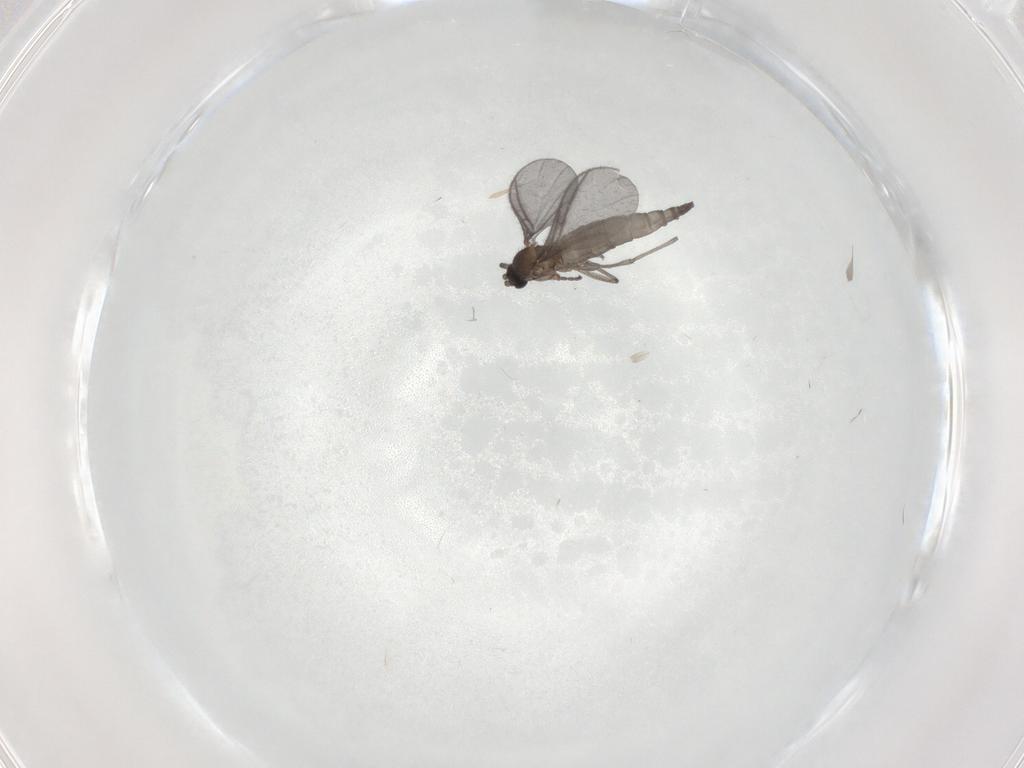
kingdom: Animalia
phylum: Arthropoda
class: Insecta
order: Diptera
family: Sciaridae
